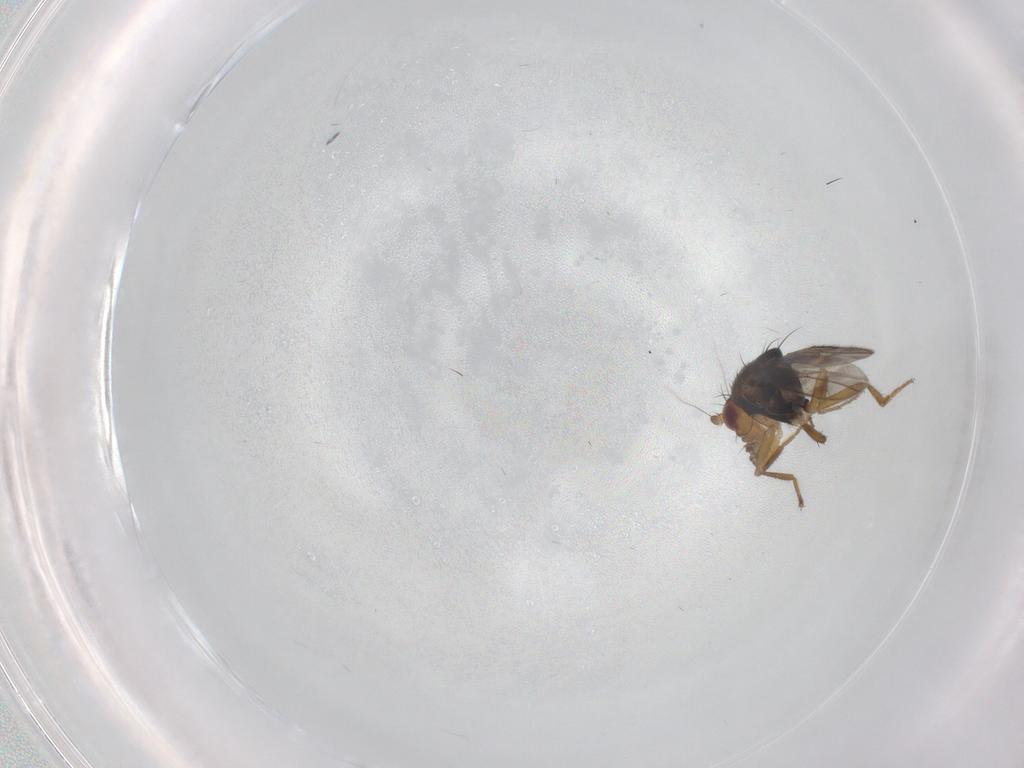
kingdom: Animalia
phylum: Arthropoda
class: Insecta
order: Diptera
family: Sphaeroceridae
